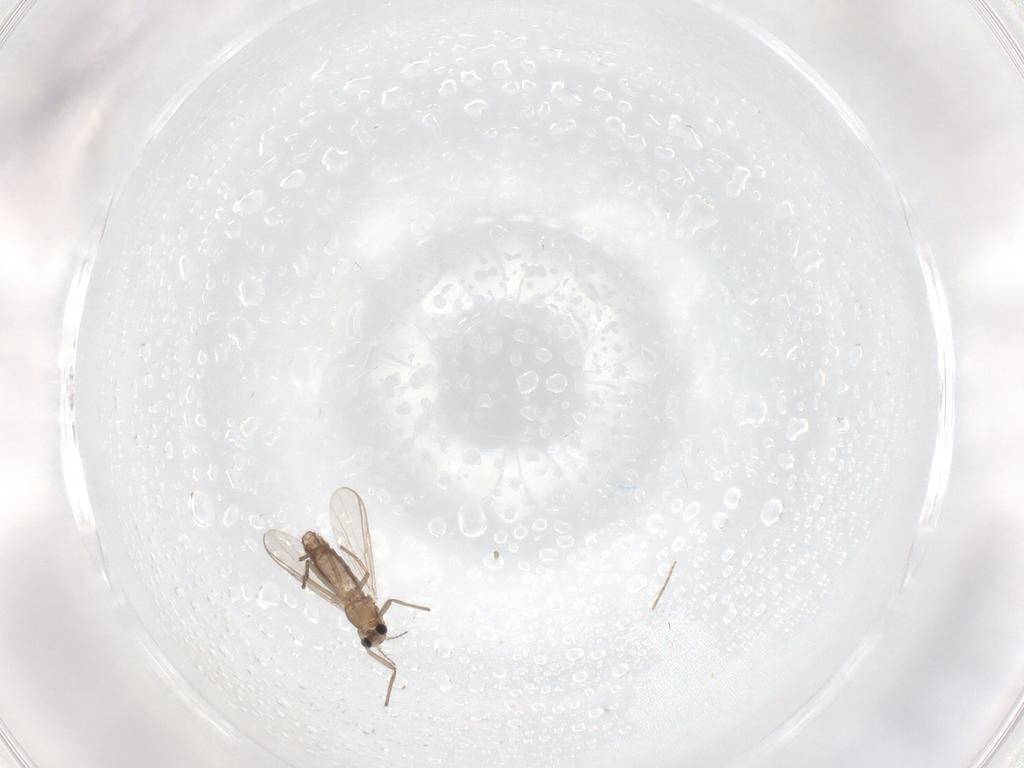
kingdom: Animalia
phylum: Arthropoda
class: Insecta
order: Diptera
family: Chironomidae
